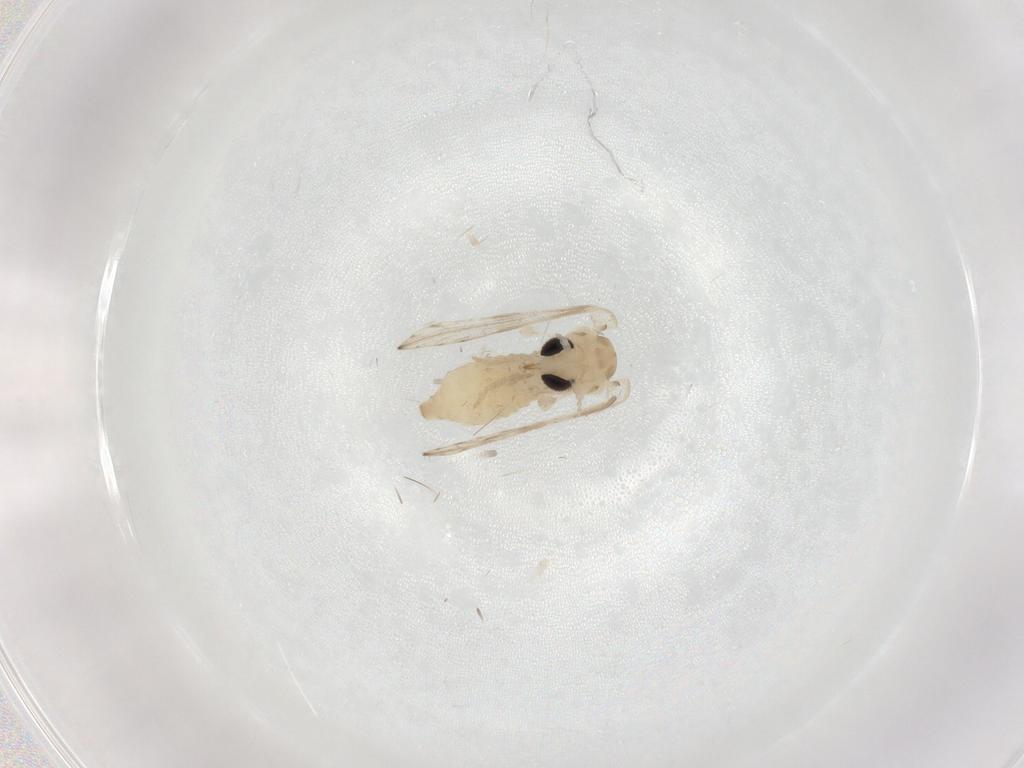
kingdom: Animalia
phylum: Arthropoda
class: Insecta
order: Diptera
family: Psychodidae
